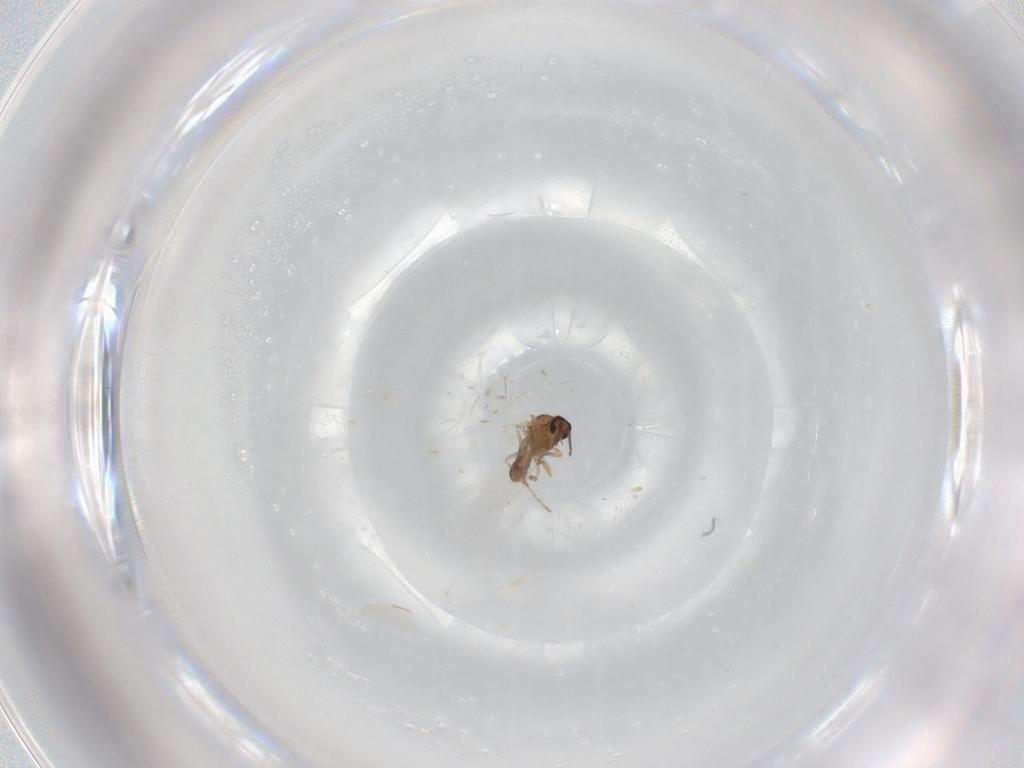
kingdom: Animalia
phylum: Arthropoda
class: Insecta
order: Diptera
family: Ceratopogonidae
